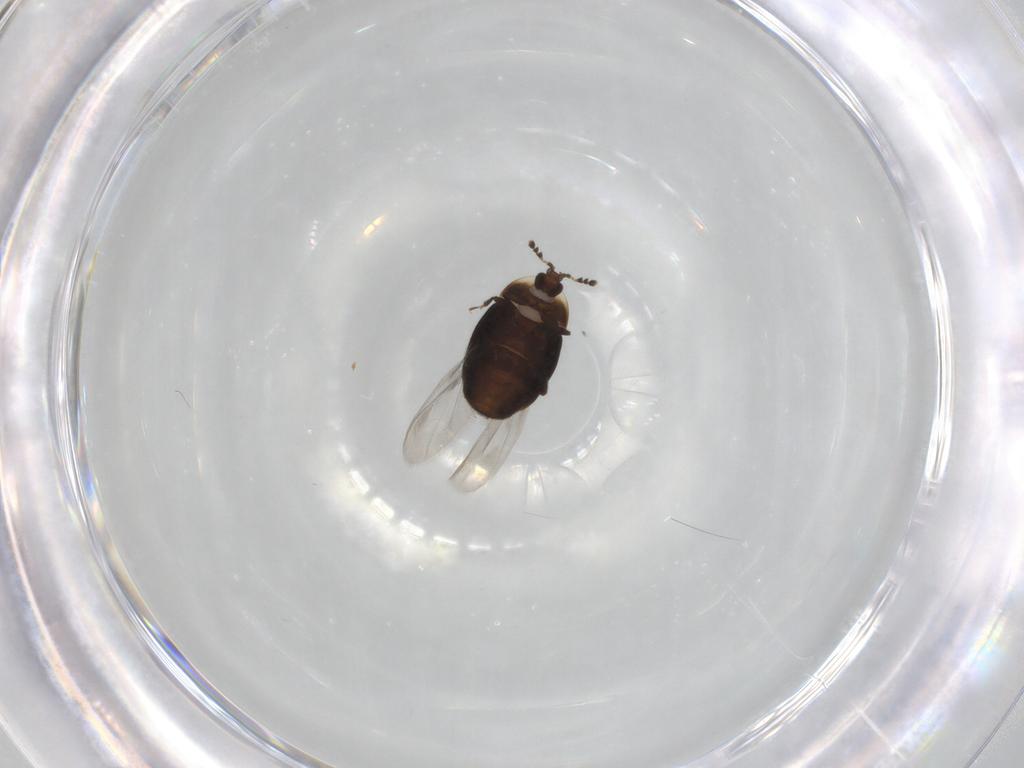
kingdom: Animalia
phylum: Arthropoda
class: Insecta
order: Coleoptera
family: Corylophidae
